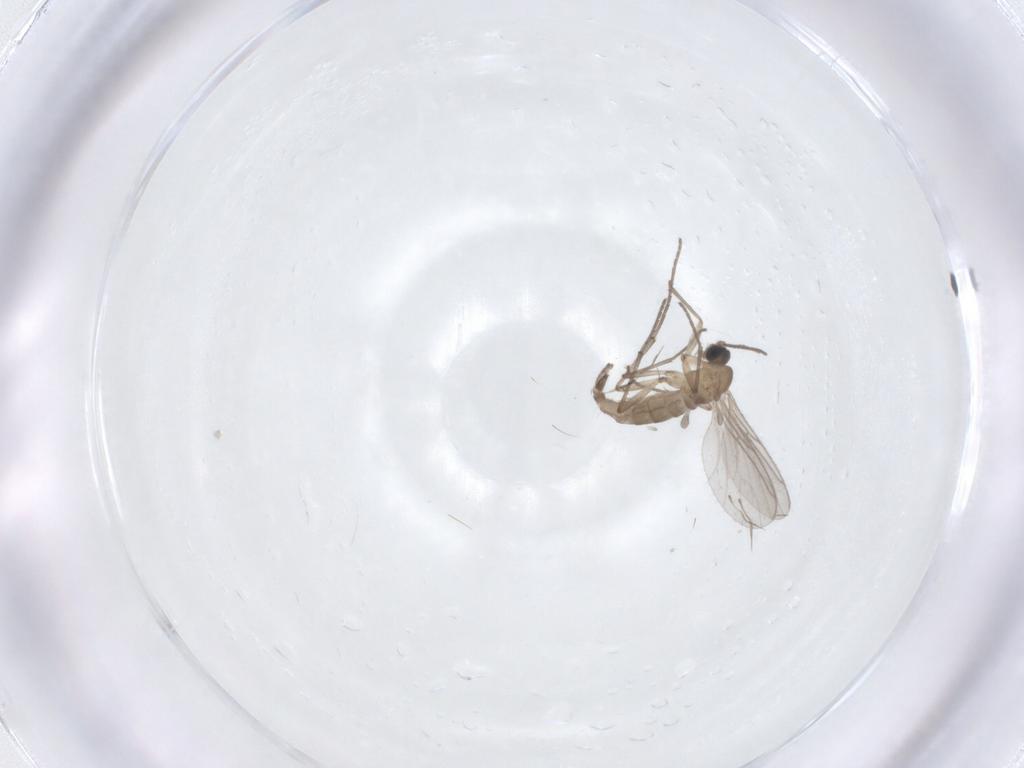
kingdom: Animalia
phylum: Arthropoda
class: Insecta
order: Diptera
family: Sciaridae
